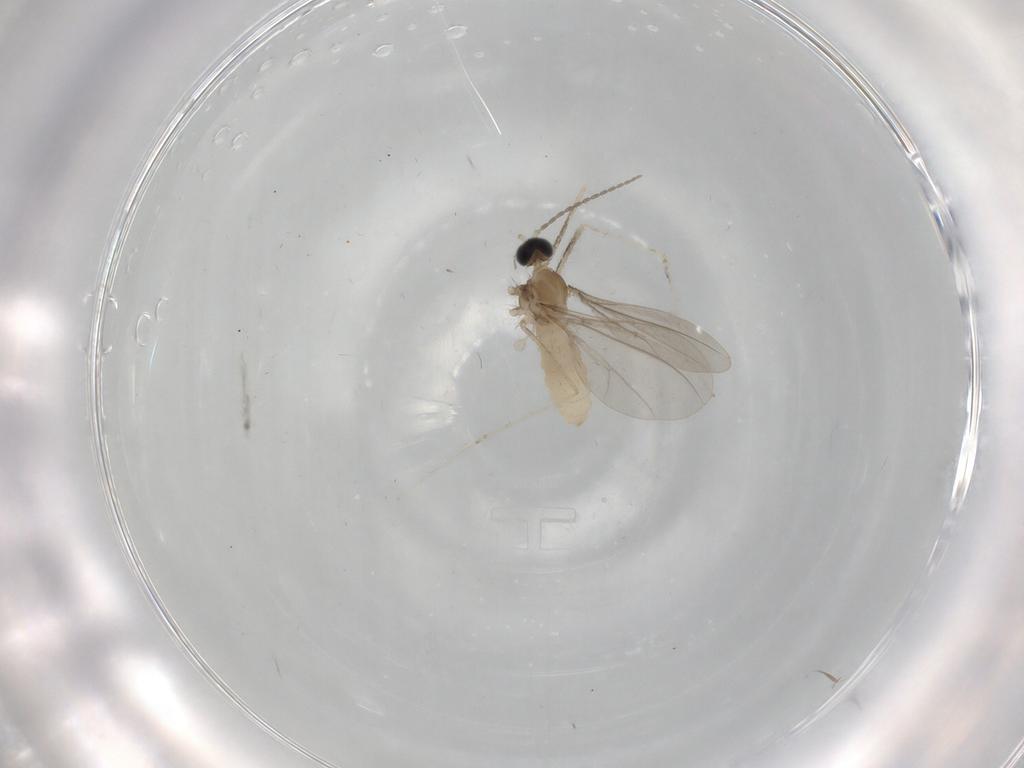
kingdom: Animalia
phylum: Arthropoda
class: Insecta
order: Diptera
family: Cecidomyiidae
